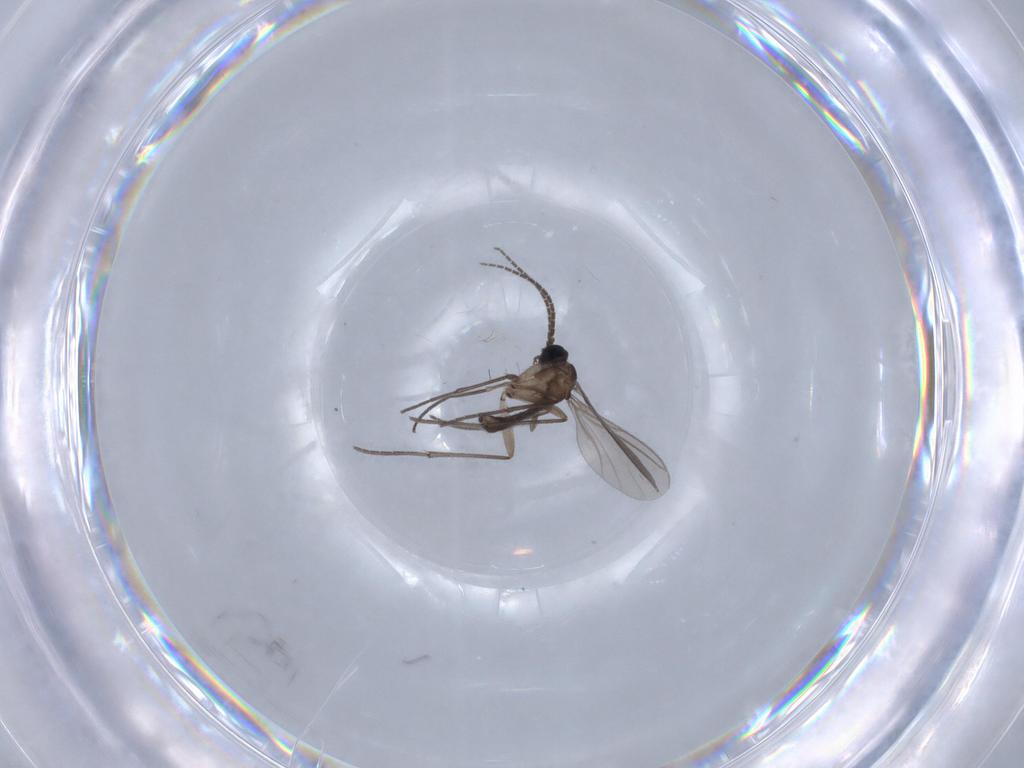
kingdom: Animalia
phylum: Arthropoda
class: Insecta
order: Diptera
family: Sciaridae
